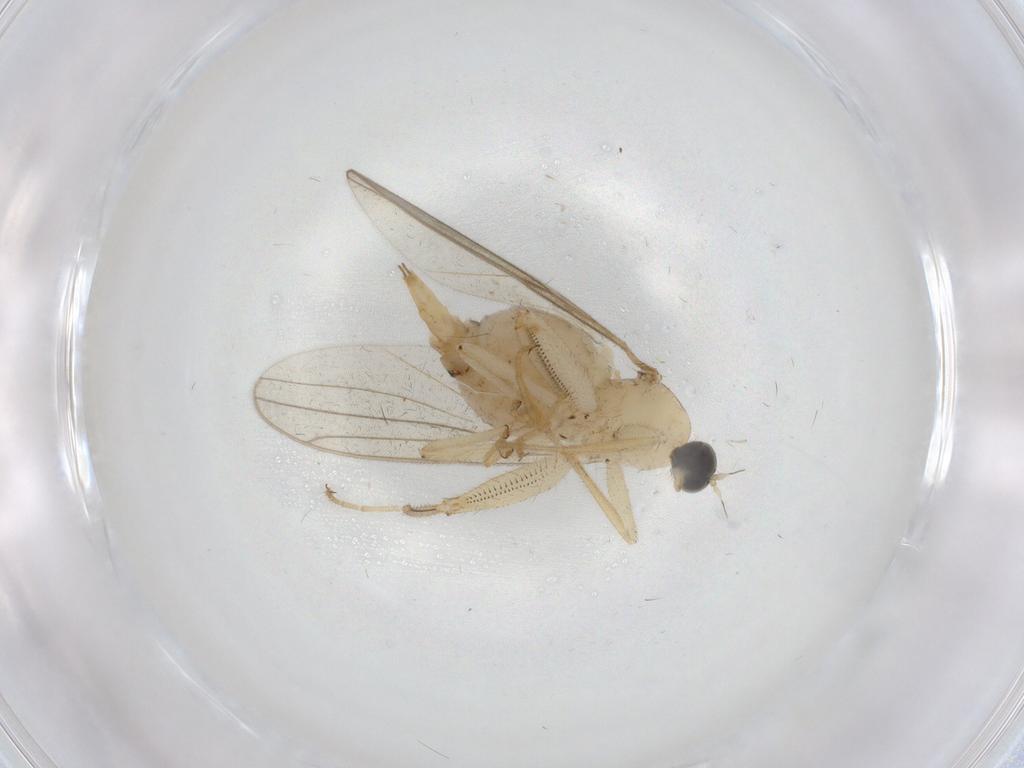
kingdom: Animalia
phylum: Arthropoda
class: Insecta
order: Diptera
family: Hybotidae
